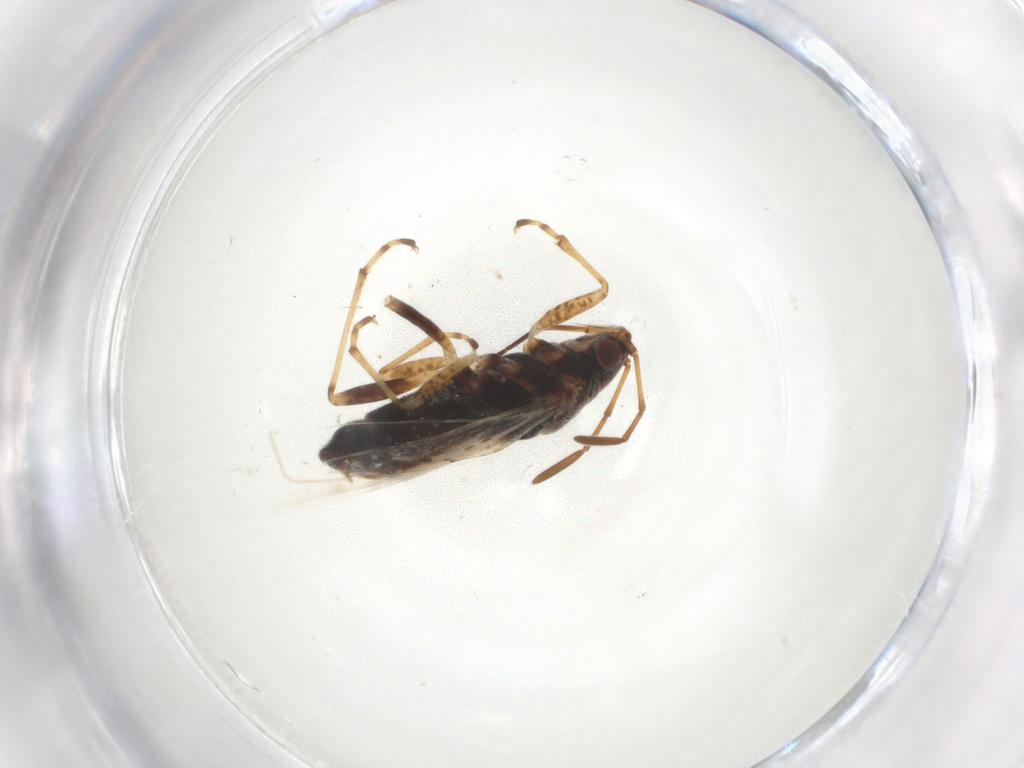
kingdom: Animalia
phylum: Arthropoda
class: Insecta
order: Hemiptera
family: Lygaeidae
